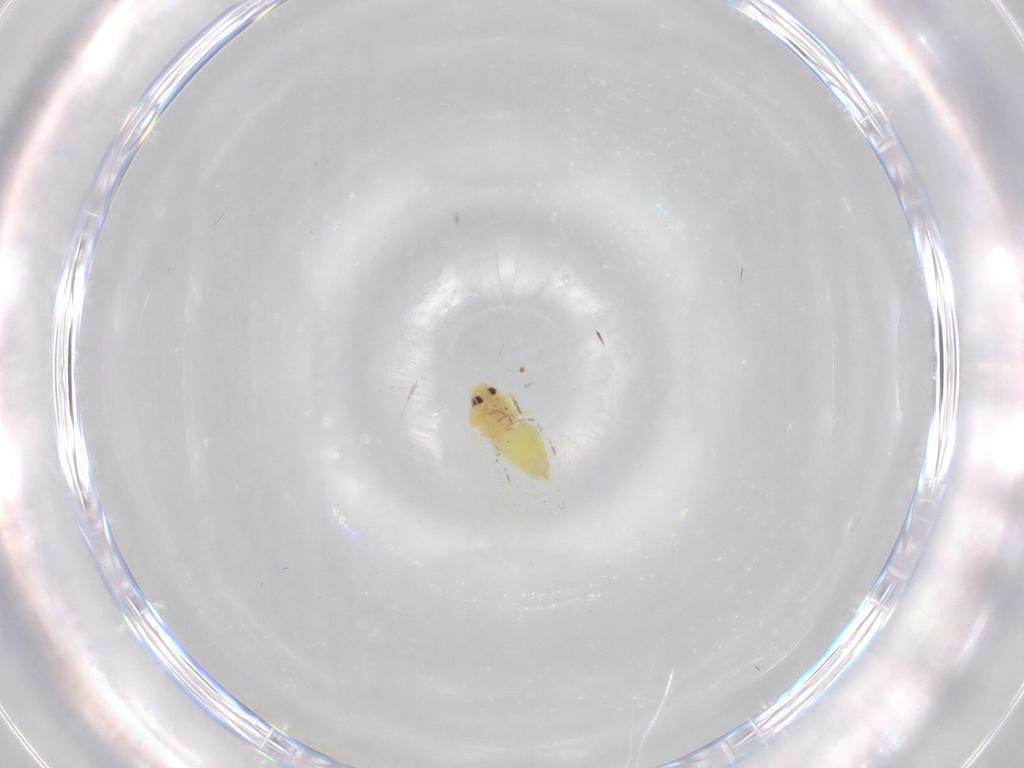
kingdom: Animalia
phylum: Arthropoda
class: Insecta
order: Hemiptera
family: Aleyrodidae
